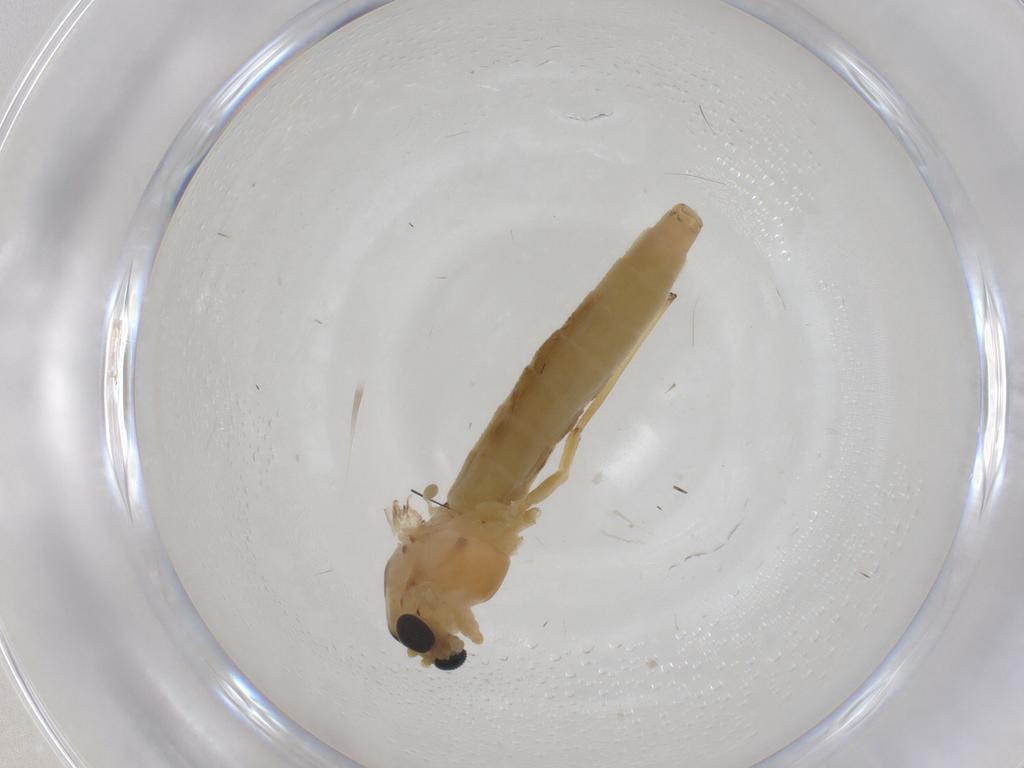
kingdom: Animalia
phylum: Arthropoda
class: Insecta
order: Diptera
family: Chironomidae
